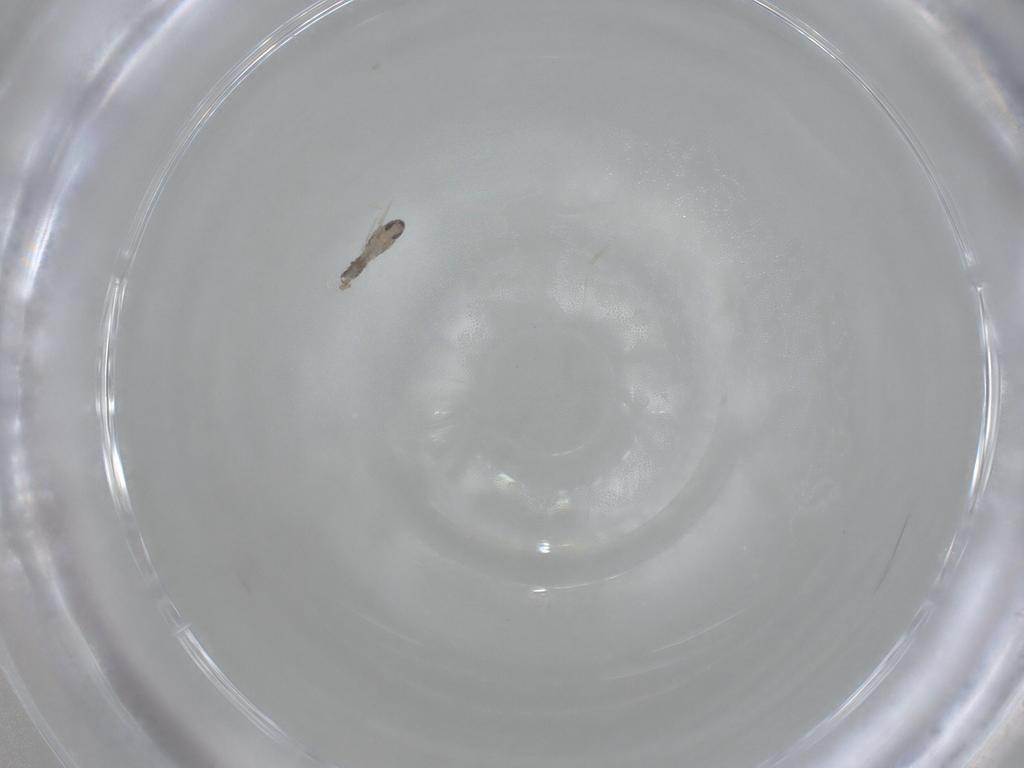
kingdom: Animalia
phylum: Arthropoda
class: Insecta
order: Diptera
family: Cecidomyiidae
